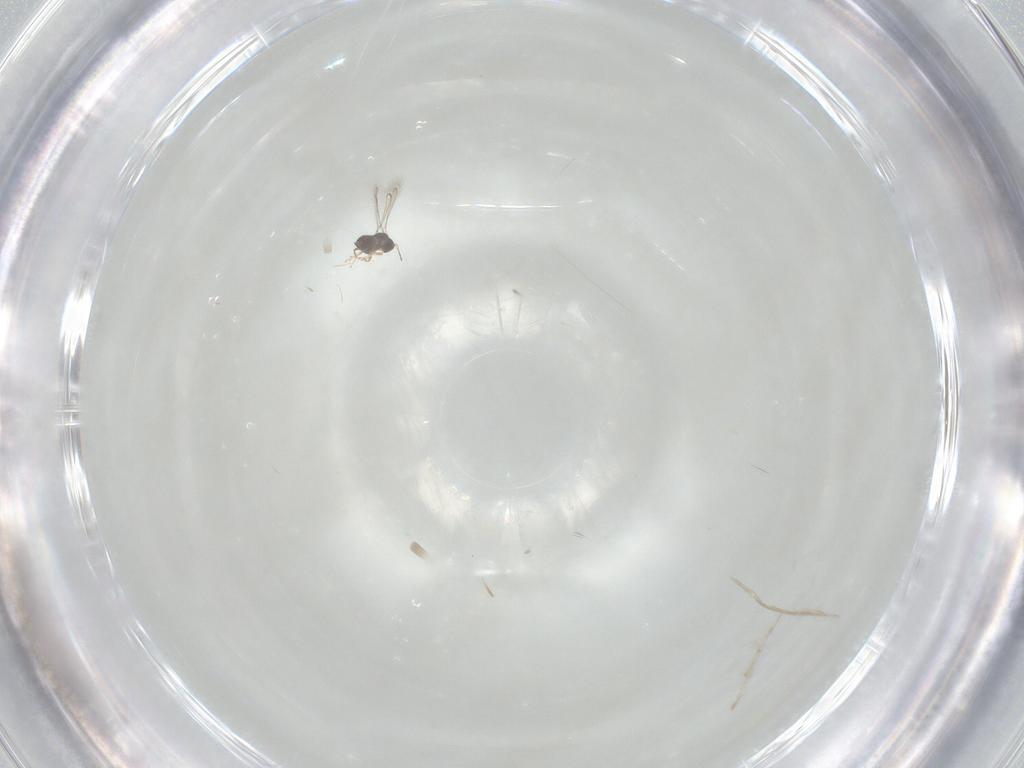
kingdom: Animalia
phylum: Arthropoda
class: Insecta
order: Hymenoptera
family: Mymaridae
